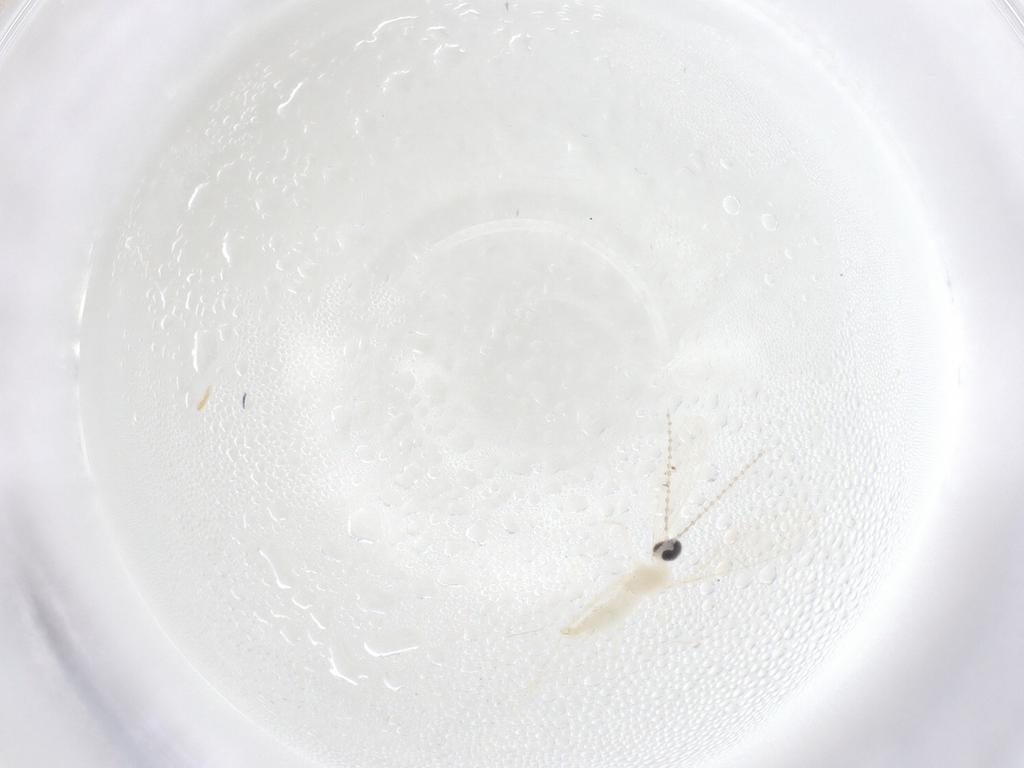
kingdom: Animalia
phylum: Arthropoda
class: Insecta
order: Diptera
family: Cecidomyiidae
